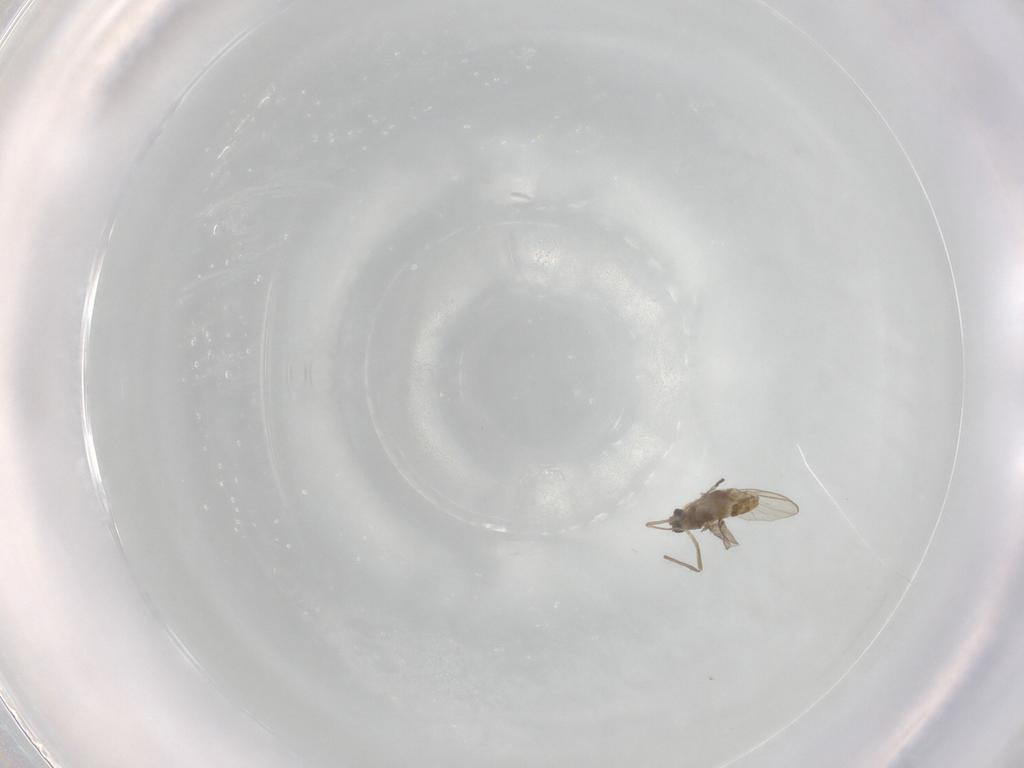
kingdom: Animalia
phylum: Arthropoda
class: Insecta
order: Diptera
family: Chironomidae
